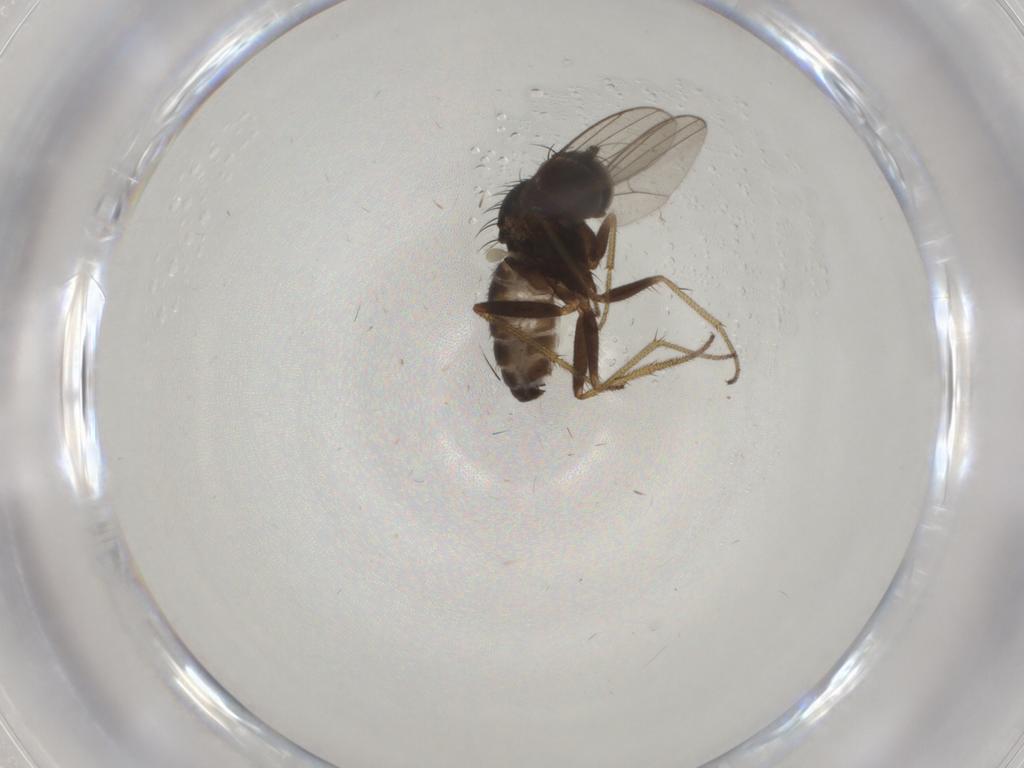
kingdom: Animalia
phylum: Arthropoda
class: Insecta
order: Diptera
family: Dolichopodidae
